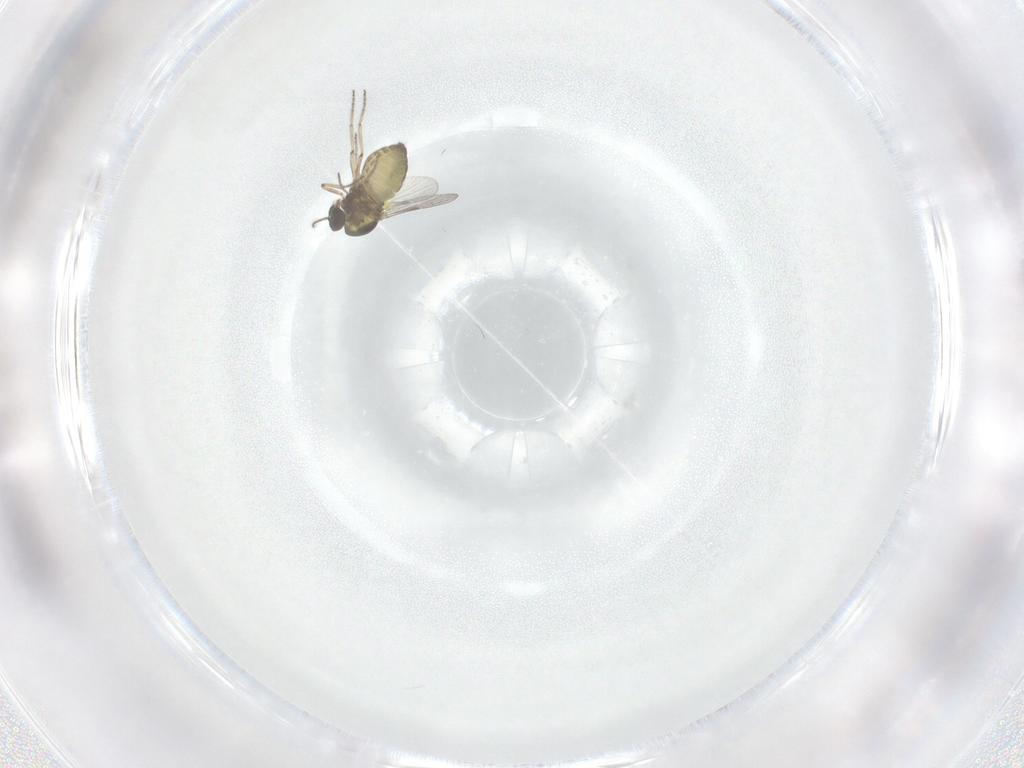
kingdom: Animalia
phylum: Arthropoda
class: Insecta
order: Diptera
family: Ceratopogonidae
